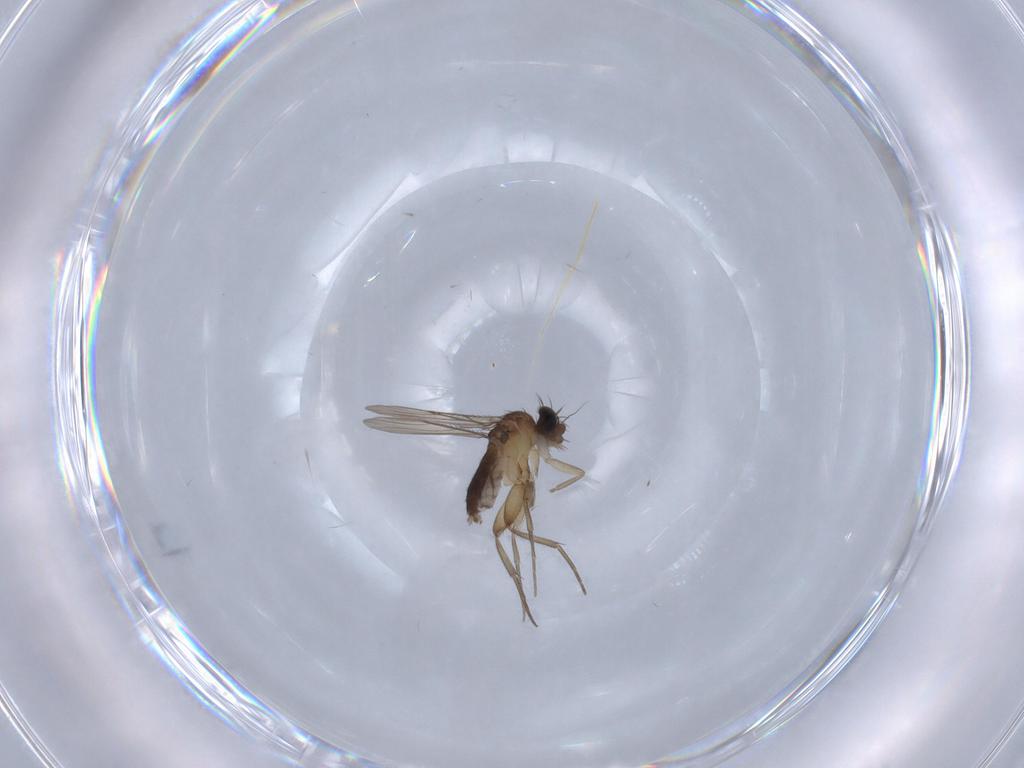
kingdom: Animalia
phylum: Arthropoda
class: Insecta
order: Diptera
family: Phoridae
